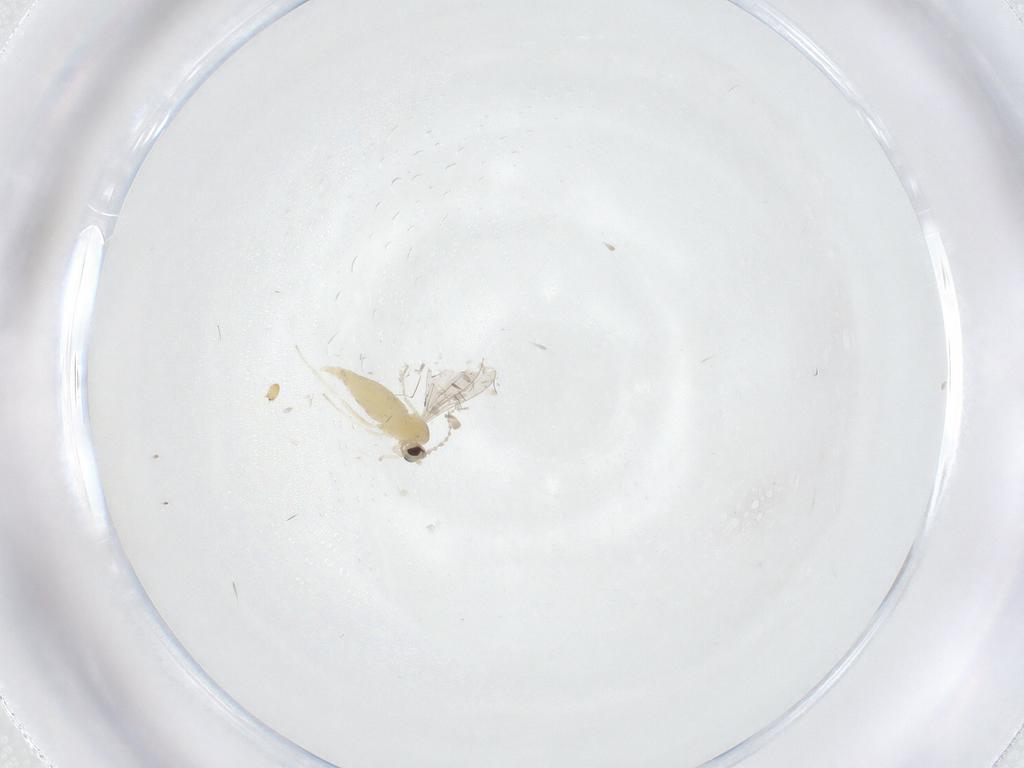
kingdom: Animalia
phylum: Arthropoda
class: Insecta
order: Diptera
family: Cecidomyiidae
